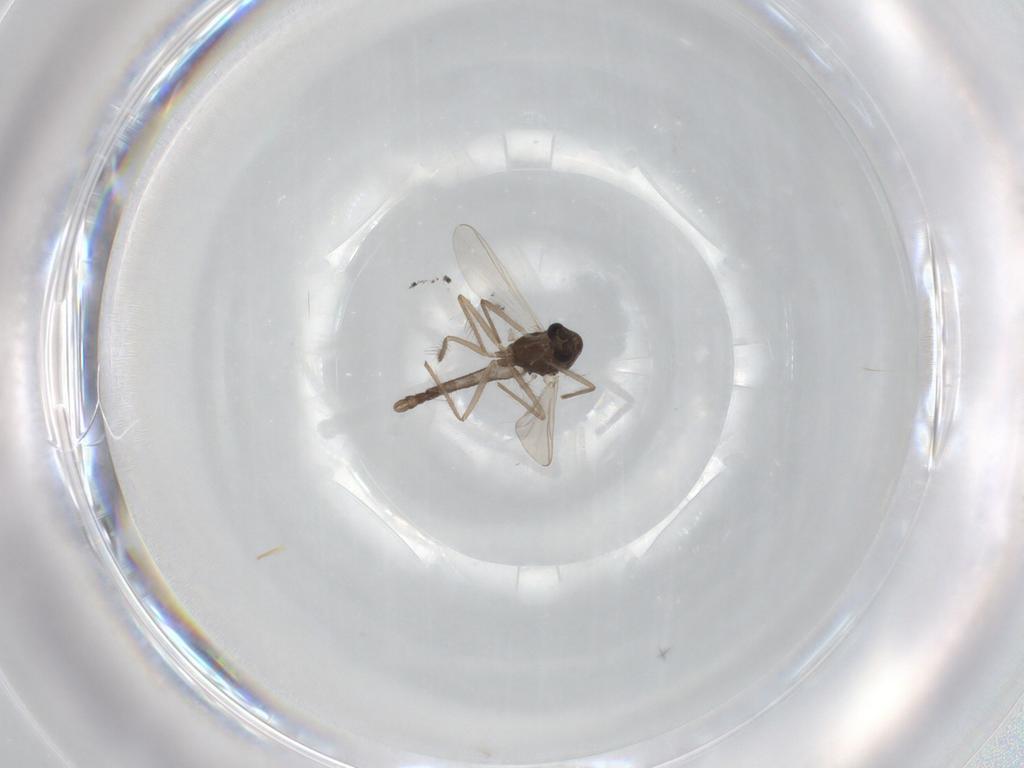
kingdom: Animalia
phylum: Arthropoda
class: Insecta
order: Diptera
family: Chironomidae
